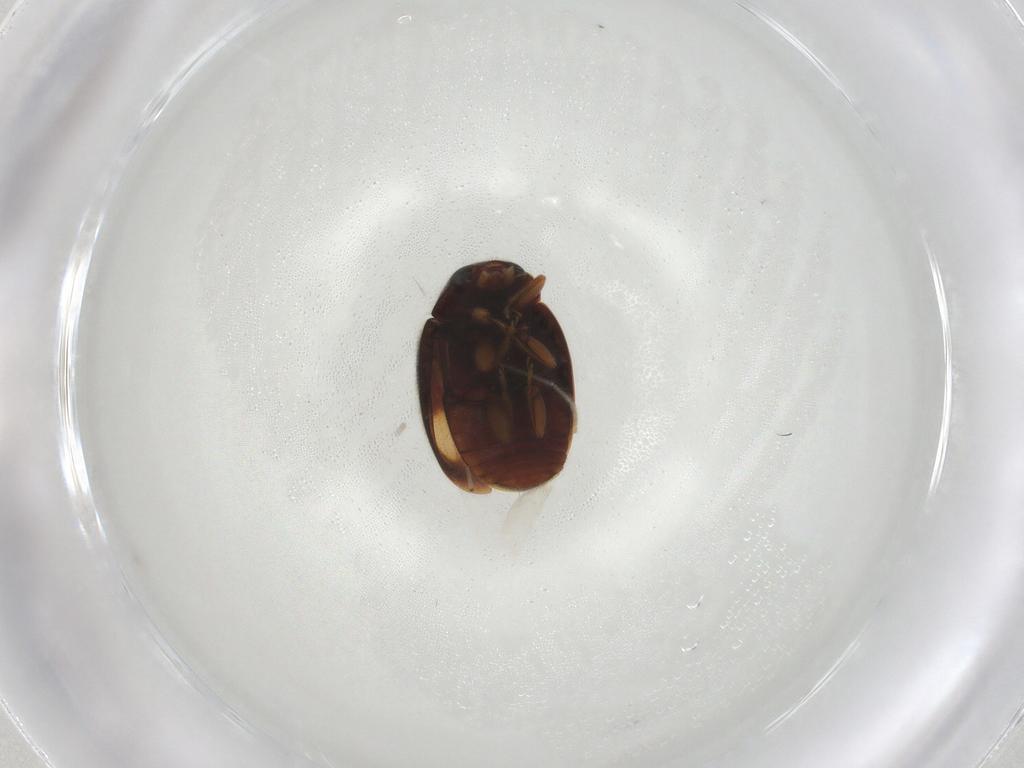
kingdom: Animalia
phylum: Arthropoda
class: Insecta
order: Coleoptera
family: Coccinellidae
